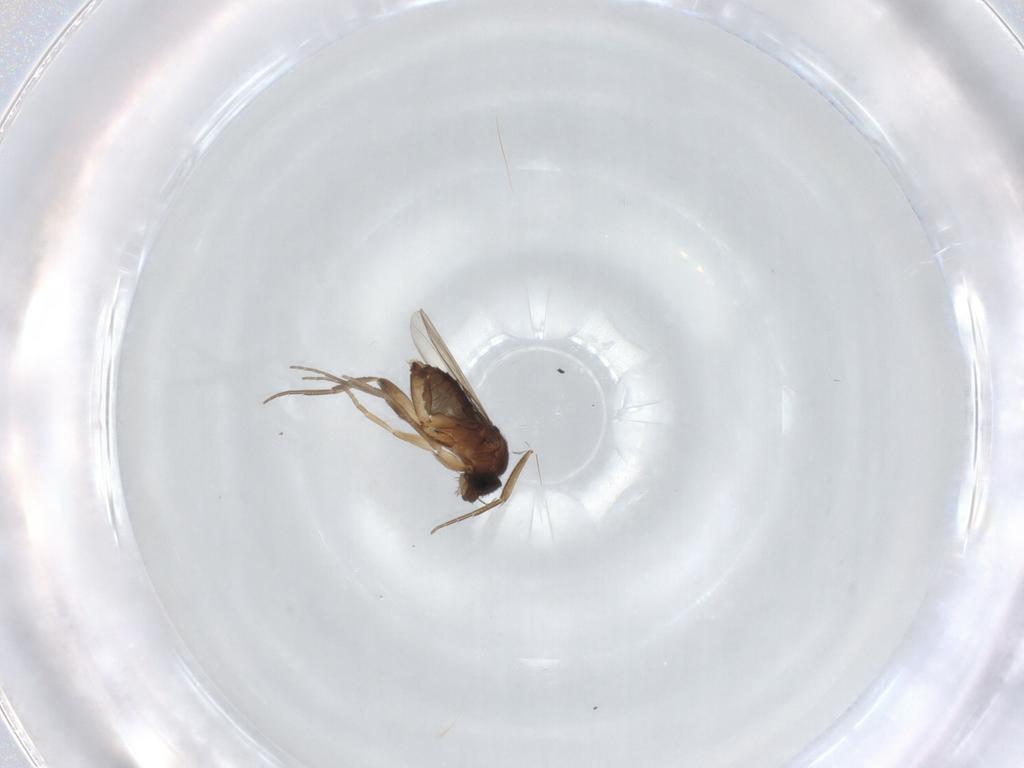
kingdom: Animalia
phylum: Arthropoda
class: Insecta
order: Diptera
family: Phoridae
